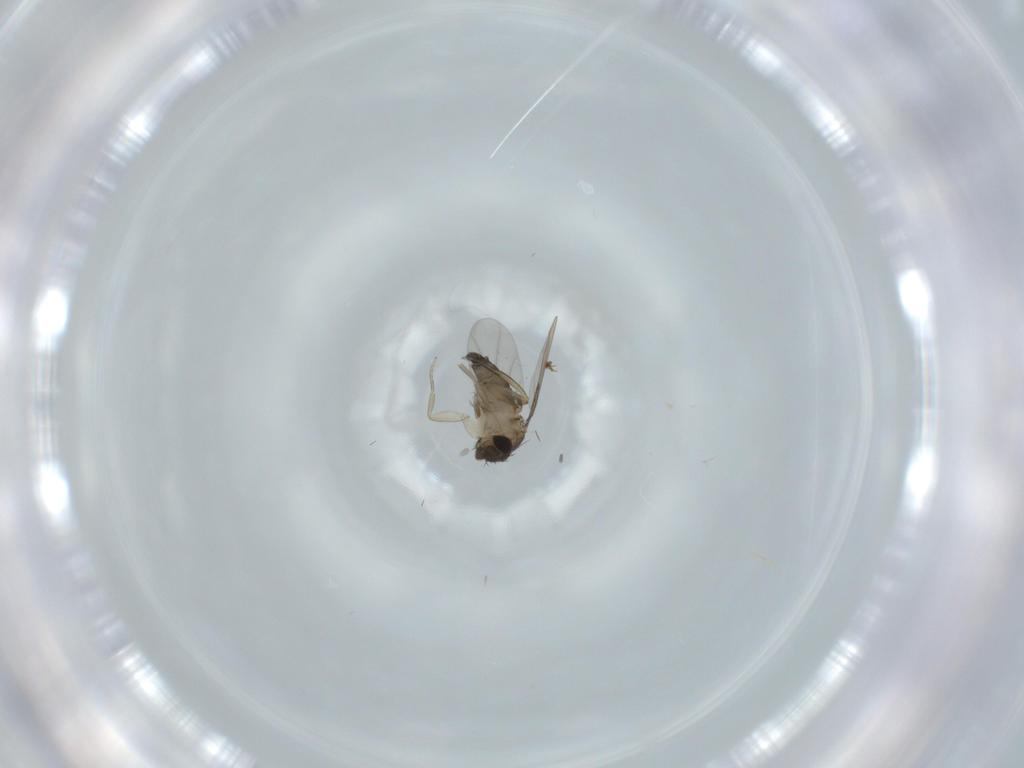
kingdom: Animalia
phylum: Arthropoda
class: Insecta
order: Diptera
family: Phoridae
